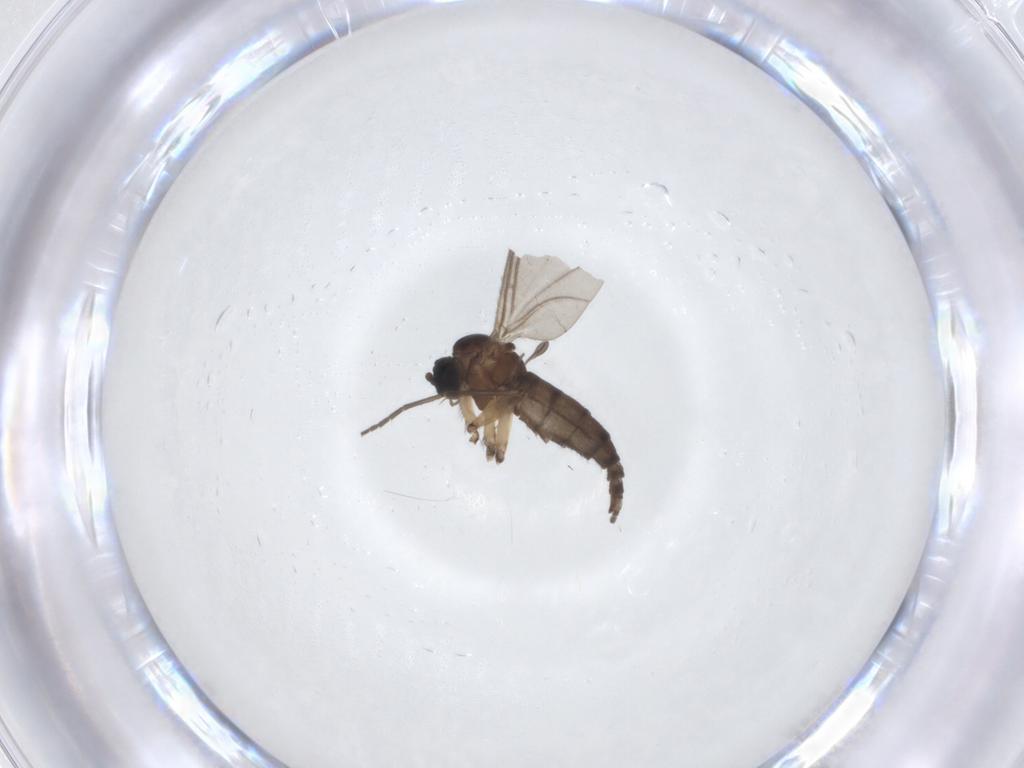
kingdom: Animalia
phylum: Arthropoda
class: Insecta
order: Diptera
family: Sciaridae
